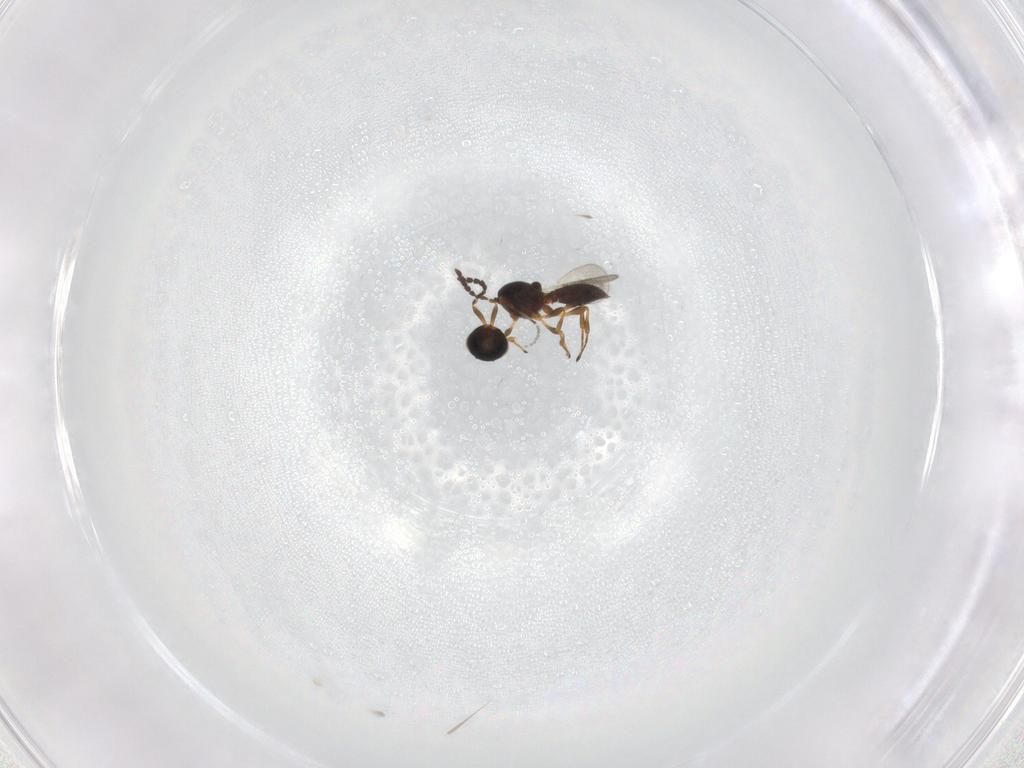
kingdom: Animalia
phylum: Arthropoda
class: Insecta
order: Hymenoptera
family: Platygastridae
